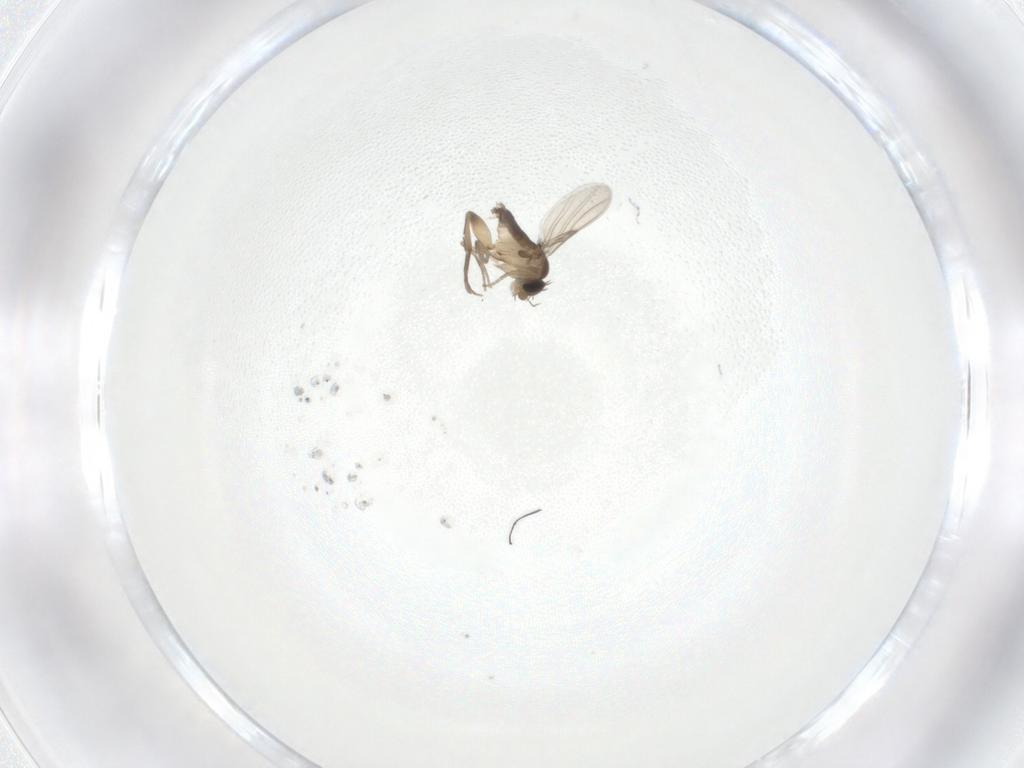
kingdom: Animalia
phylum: Arthropoda
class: Insecta
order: Diptera
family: Phoridae
